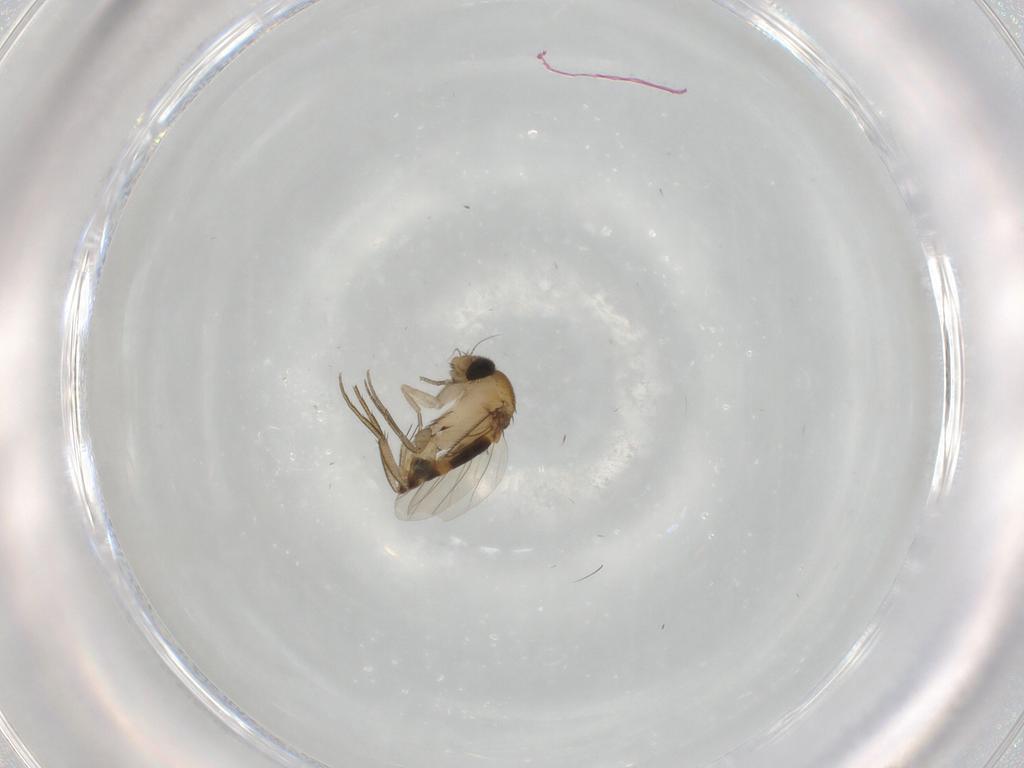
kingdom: Animalia
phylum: Arthropoda
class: Insecta
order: Diptera
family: Phoridae
